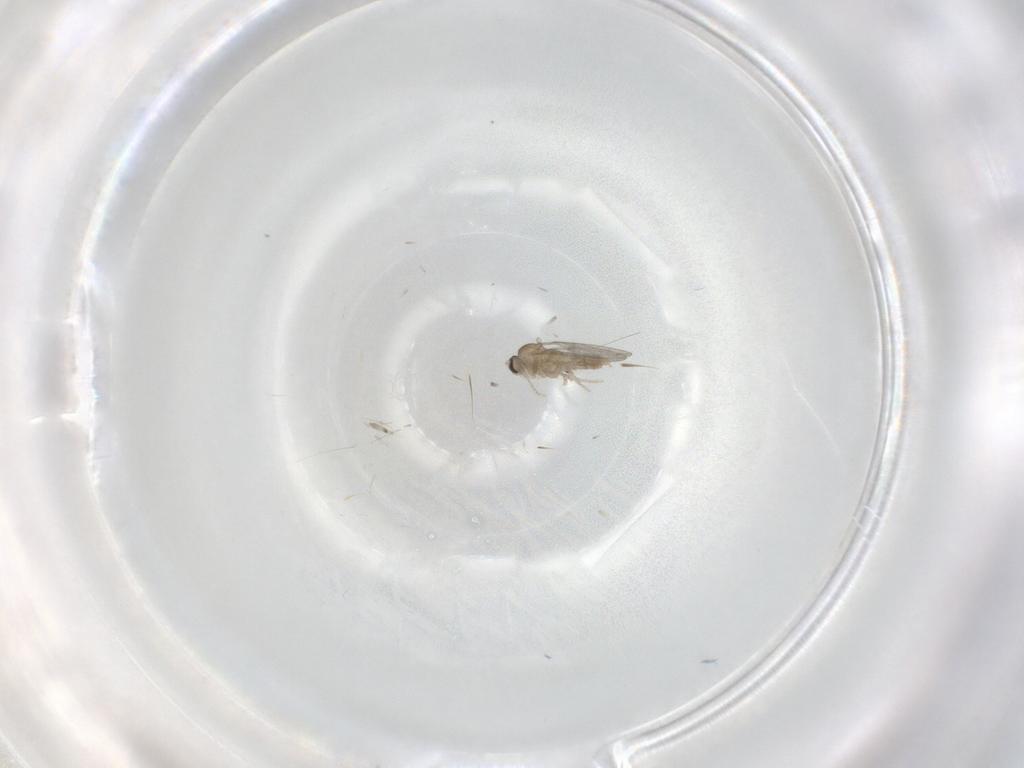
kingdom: Animalia
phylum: Arthropoda
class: Insecta
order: Diptera
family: Cecidomyiidae
